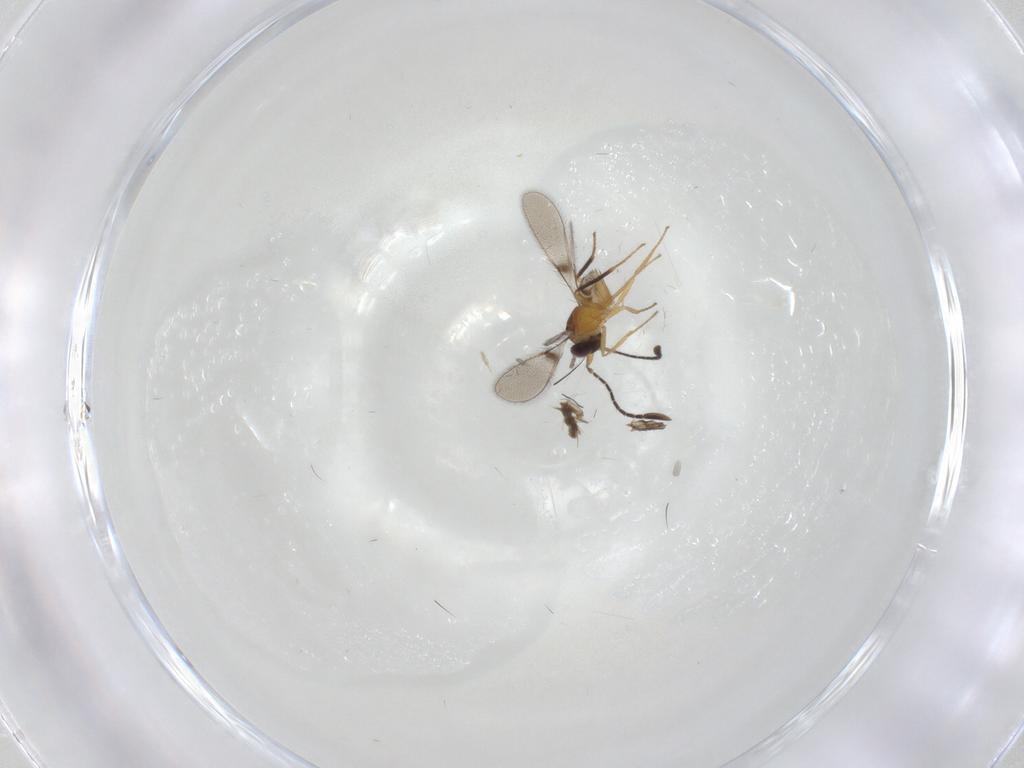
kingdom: Animalia
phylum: Arthropoda
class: Insecta
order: Hymenoptera
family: Mymaridae
